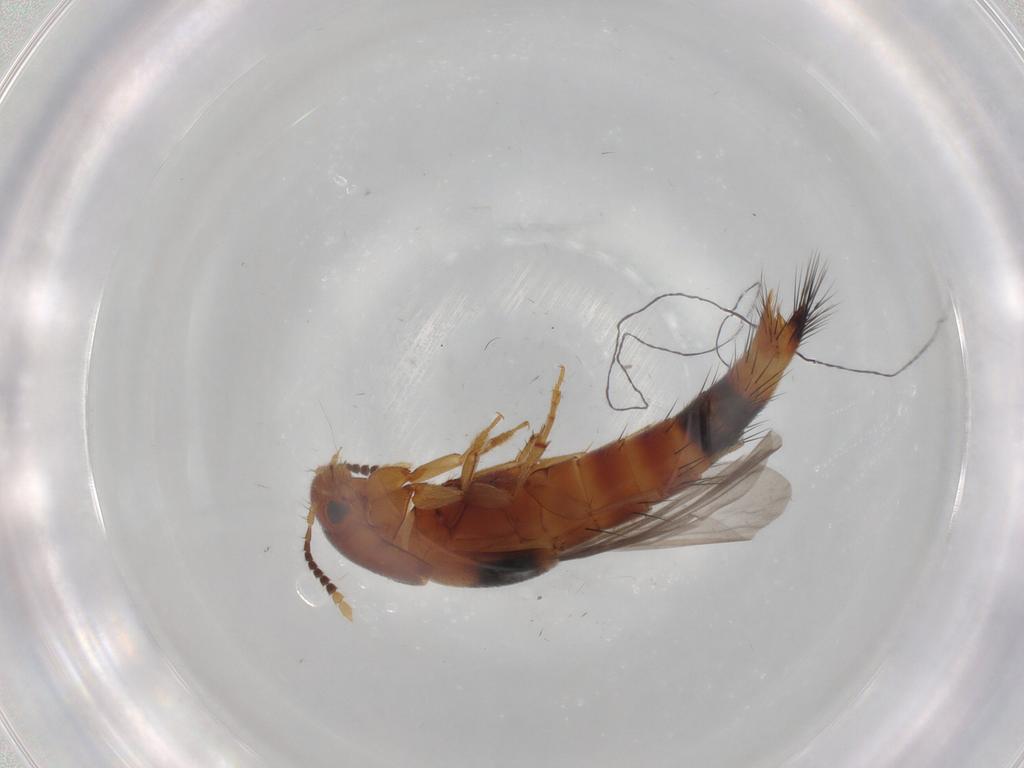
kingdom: Animalia
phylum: Arthropoda
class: Insecta
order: Coleoptera
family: Staphylinidae
